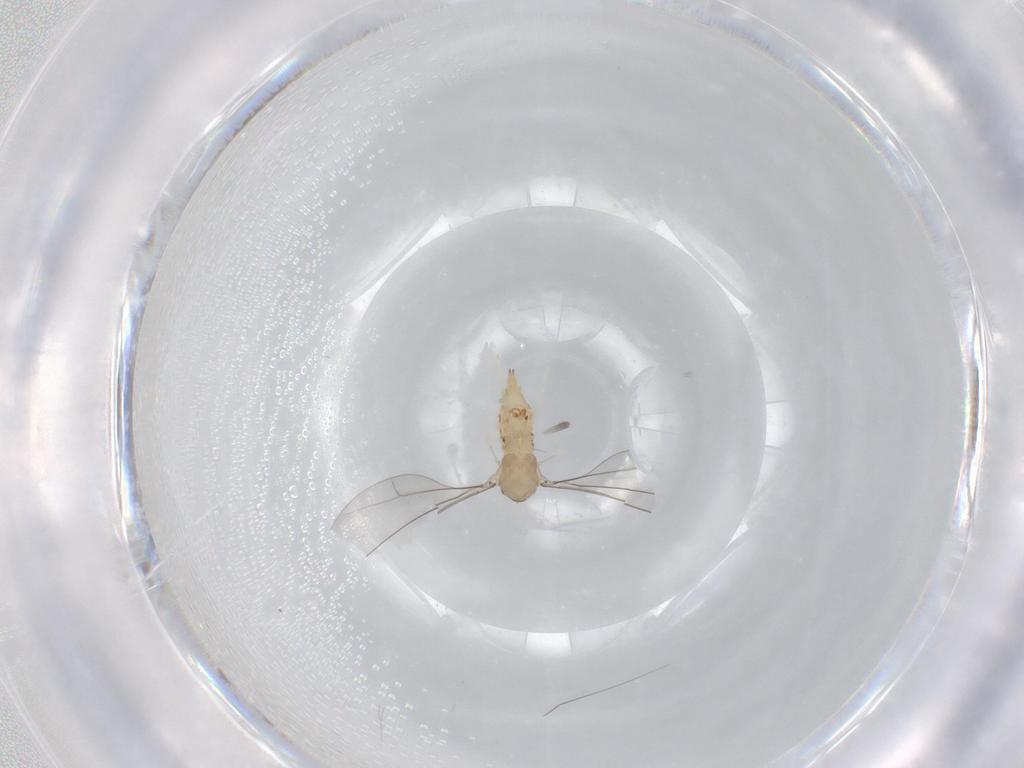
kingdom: Animalia
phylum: Arthropoda
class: Insecta
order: Diptera
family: Cecidomyiidae
